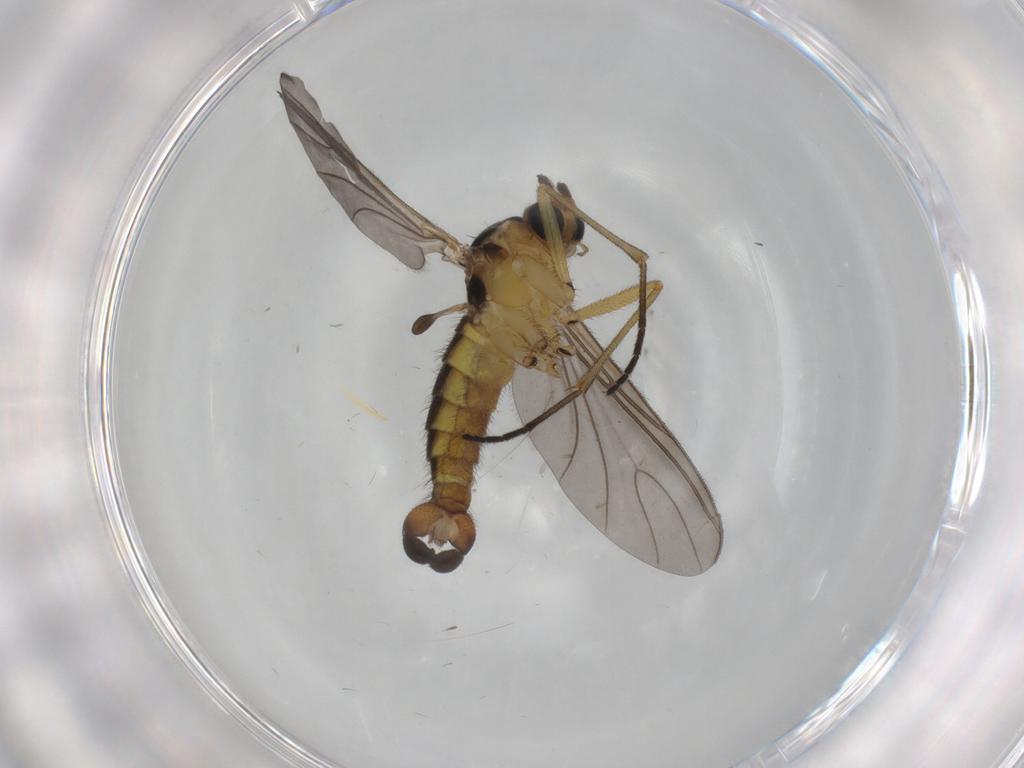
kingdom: Animalia
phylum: Arthropoda
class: Insecta
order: Diptera
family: Sciaridae
